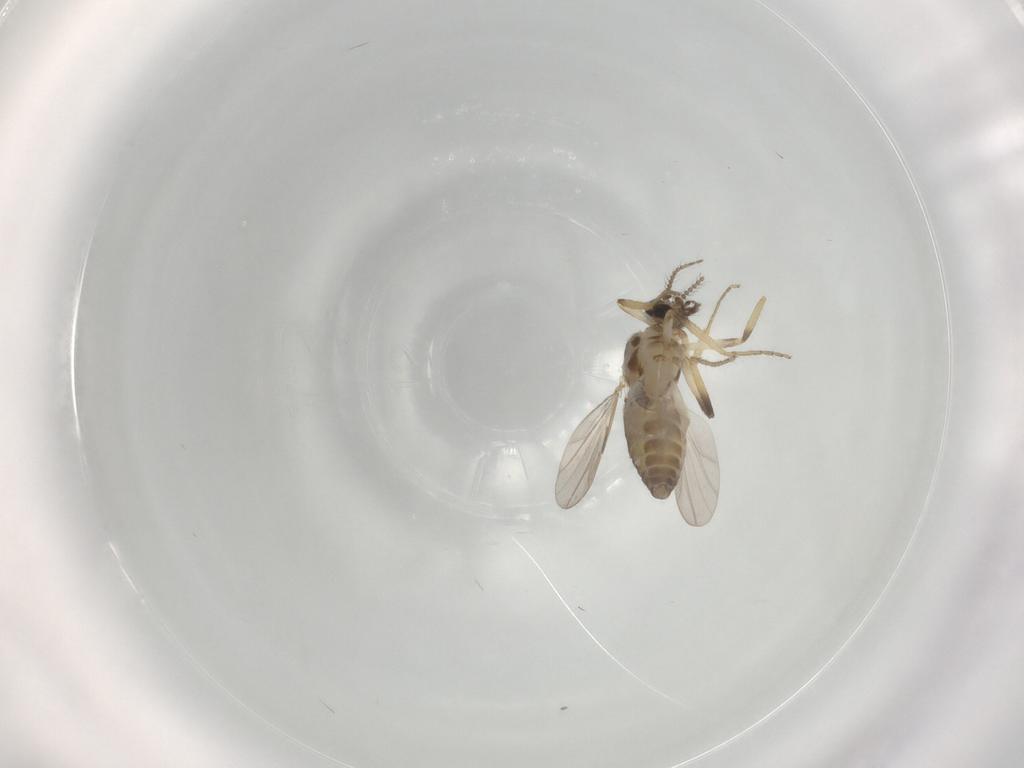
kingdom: Animalia
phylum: Arthropoda
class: Insecta
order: Diptera
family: Ceratopogonidae
